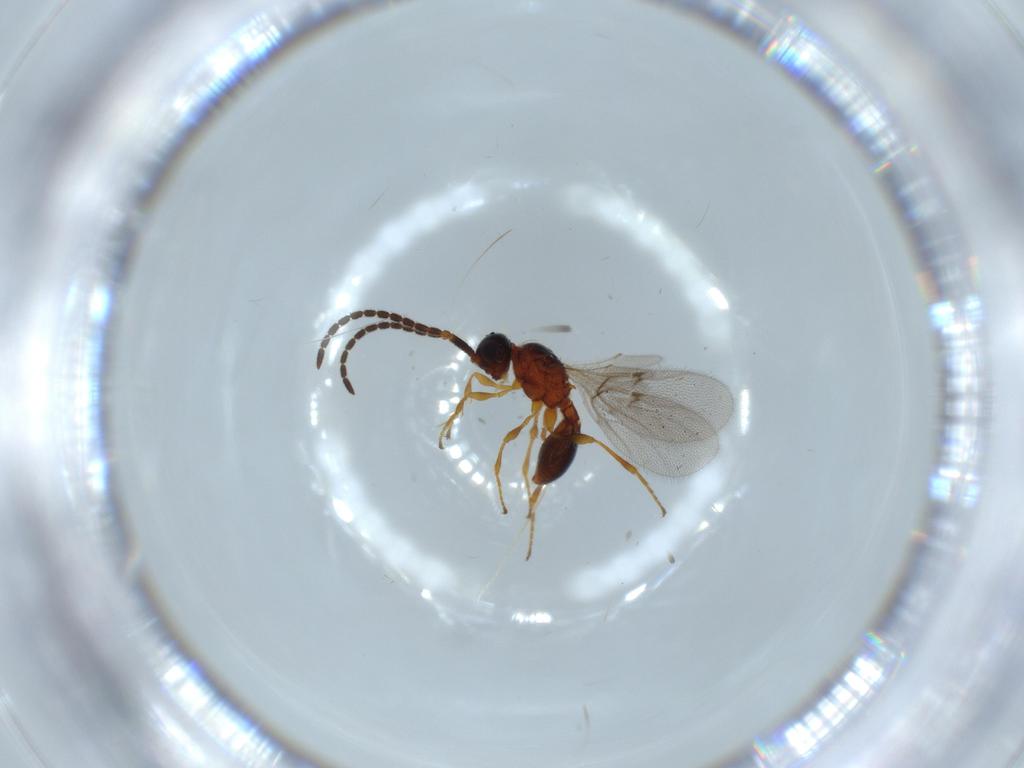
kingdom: Animalia
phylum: Arthropoda
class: Insecta
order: Hymenoptera
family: Diapriidae
